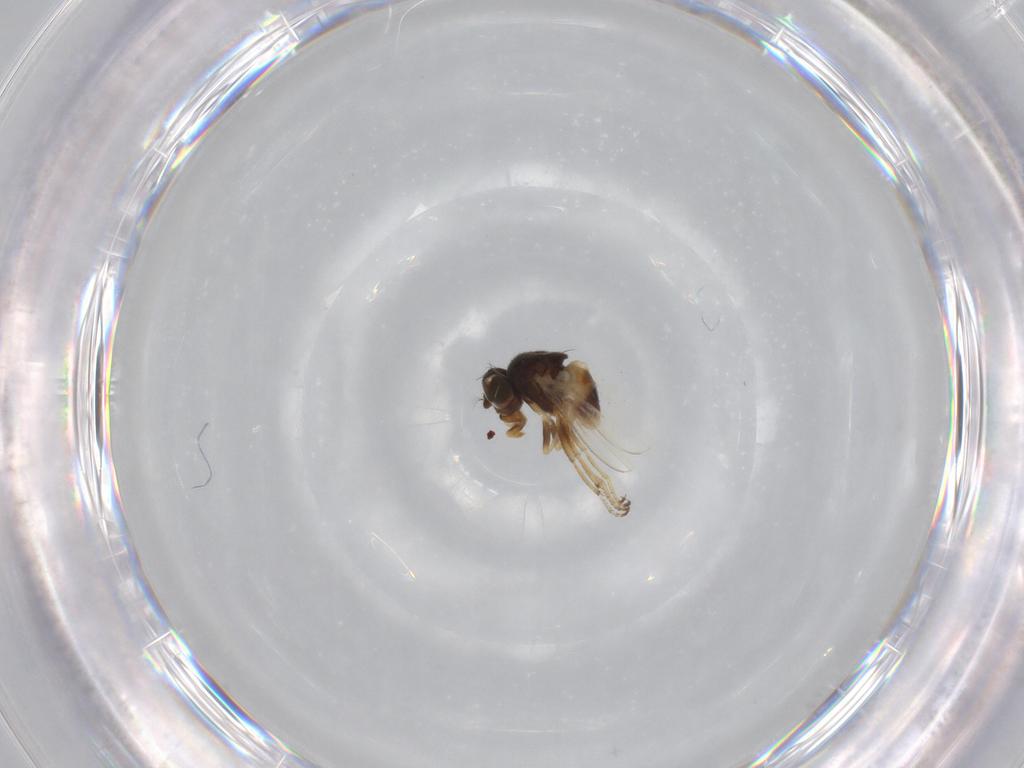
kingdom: Animalia
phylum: Arthropoda
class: Insecta
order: Diptera
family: Ephydridae
